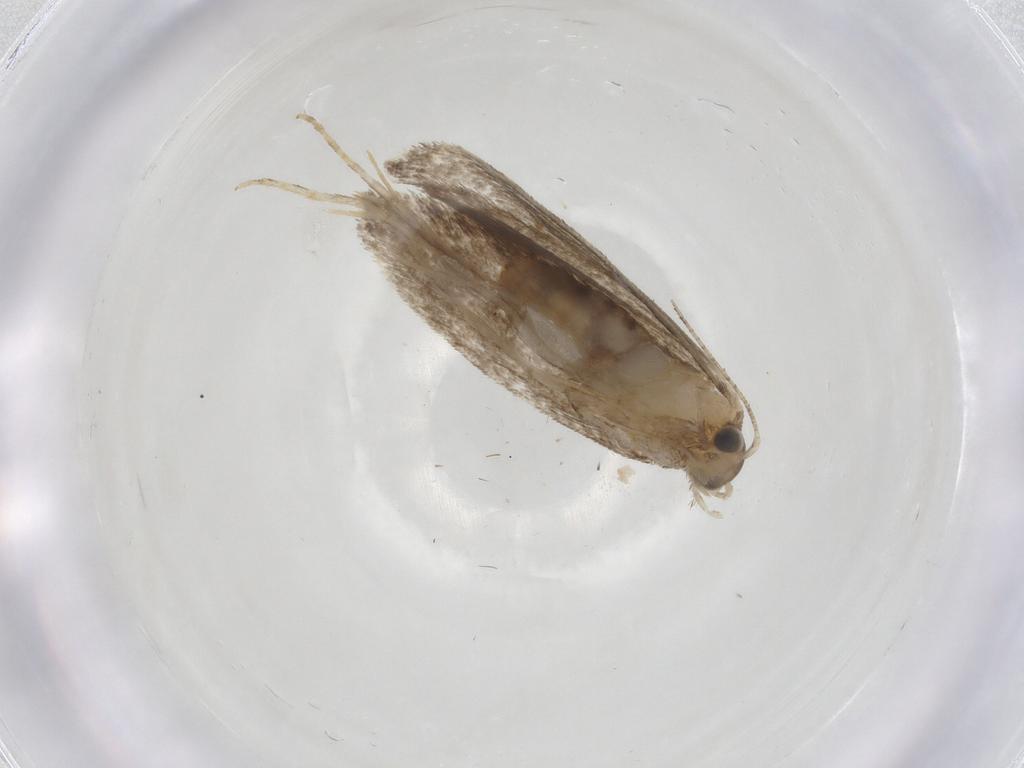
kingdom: Animalia
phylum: Arthropoda
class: Insecta
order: Lepidoptera
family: Tineidae
